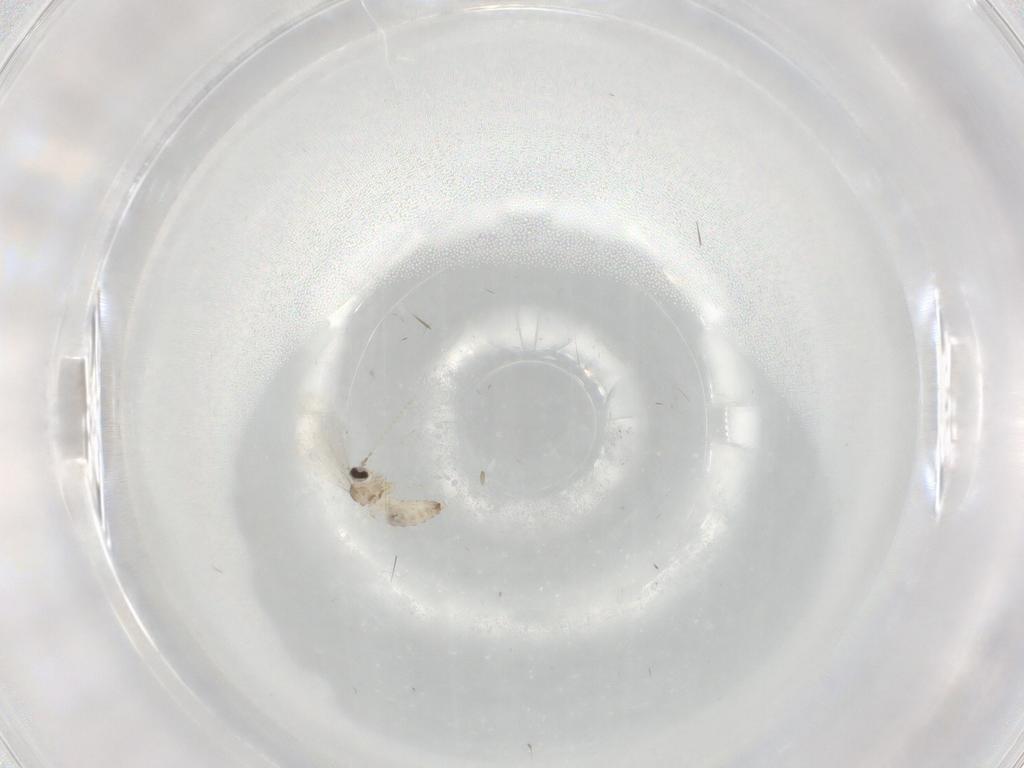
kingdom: Animalia
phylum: Arthropoda
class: Insecta
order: Diptera
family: Cecidomyiidae
